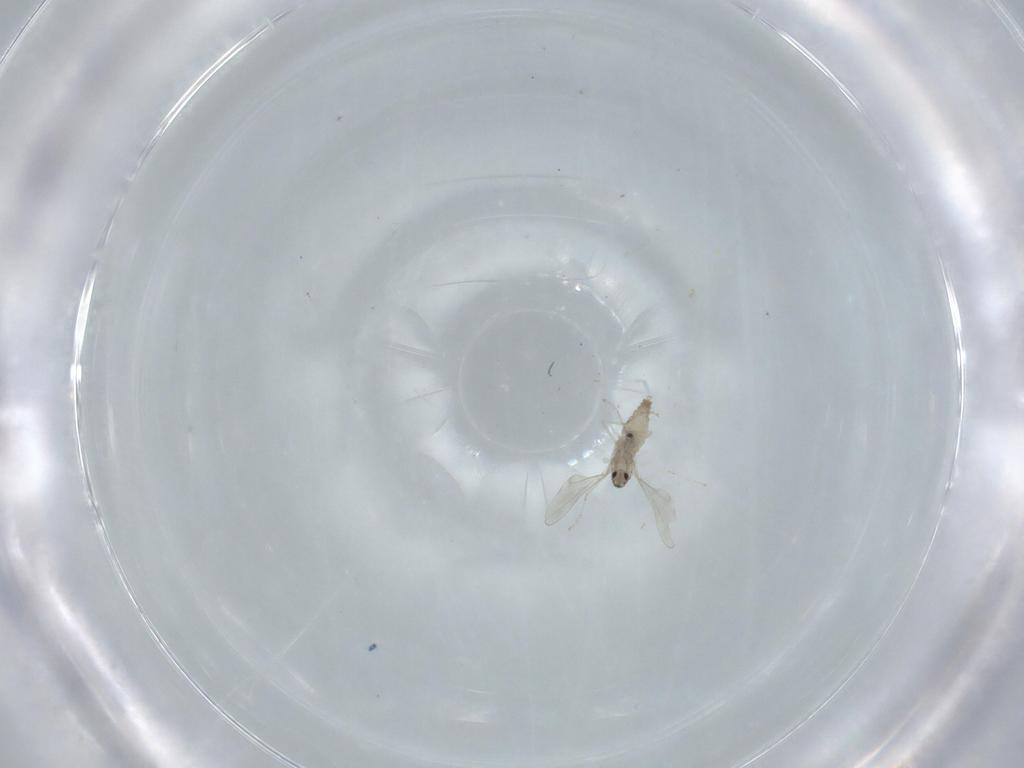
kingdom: Animalia
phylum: Arthropoda
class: Insecta
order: Diptera
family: Cecidomyiidae
